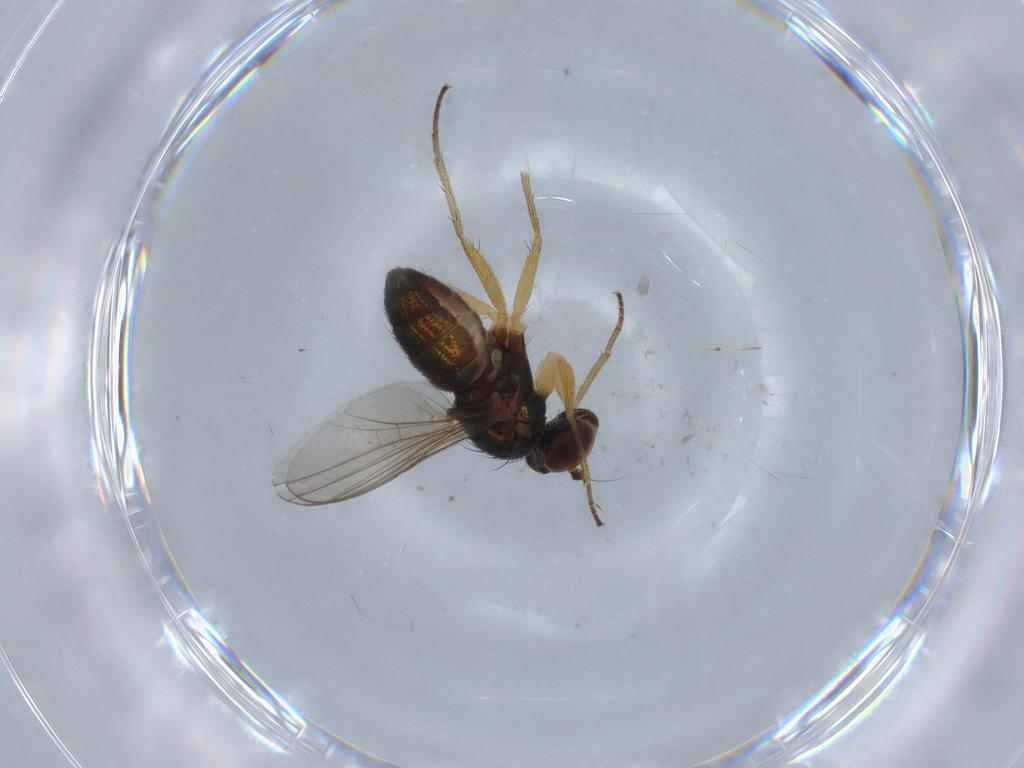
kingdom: Animalia
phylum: Arthropoda
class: Insecta
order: Diptera
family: Dolichopodidae
